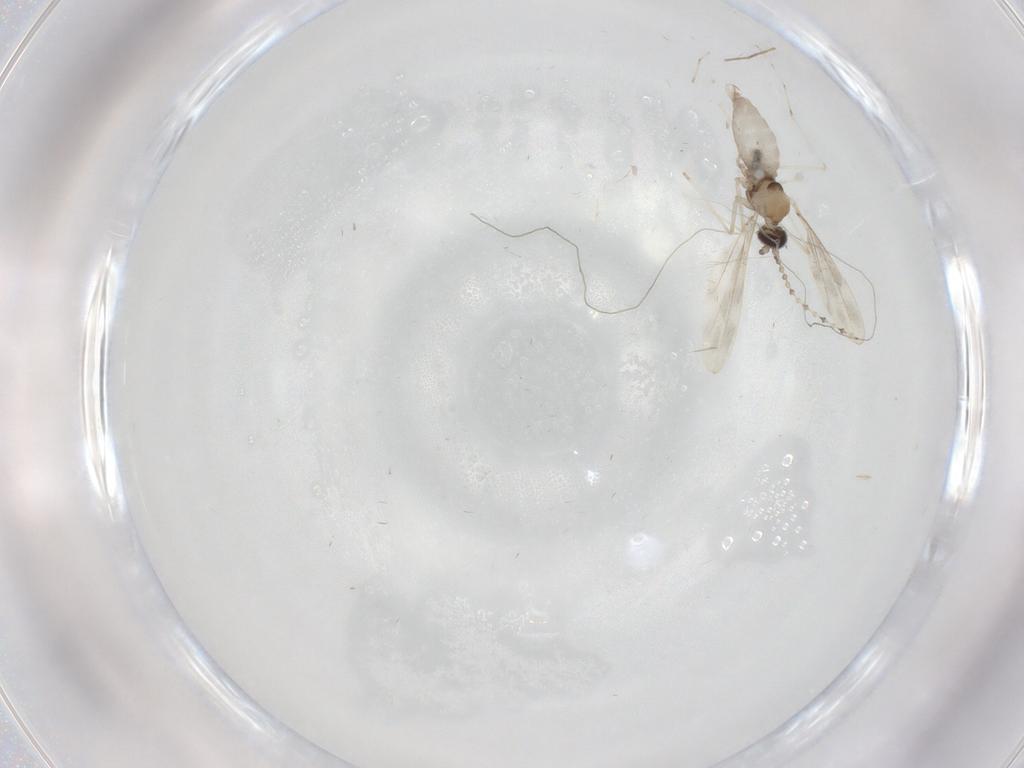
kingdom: Animalia
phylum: Arthropoda
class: Insecta
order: Diptera
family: Chironomidae
